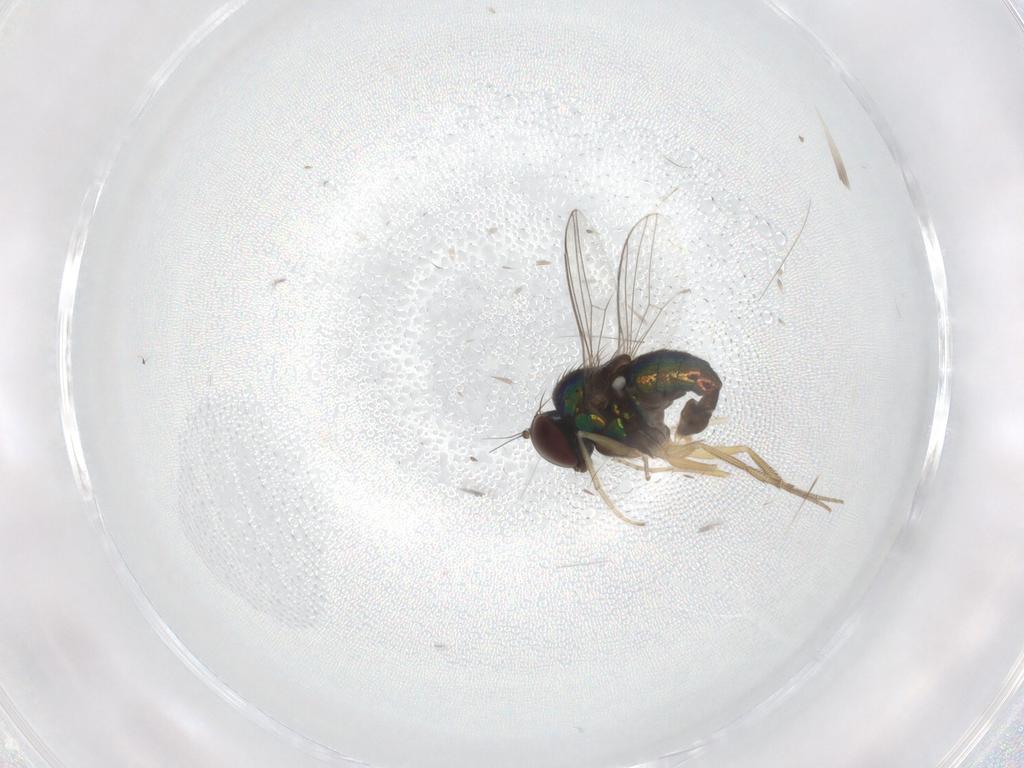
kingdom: Animalia
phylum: Arthropoda
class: Insecta
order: Diptera
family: Dolichopodidae
